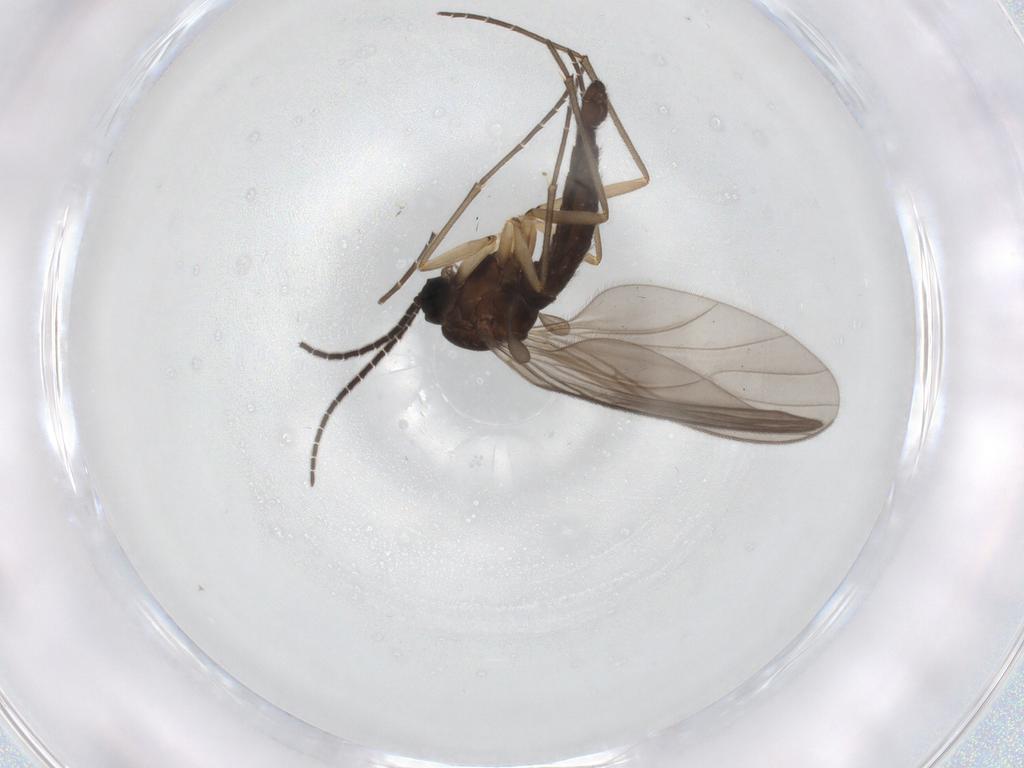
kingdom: Animalia
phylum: Arthropoda
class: Insecta
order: Diptera
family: Sciaridae
